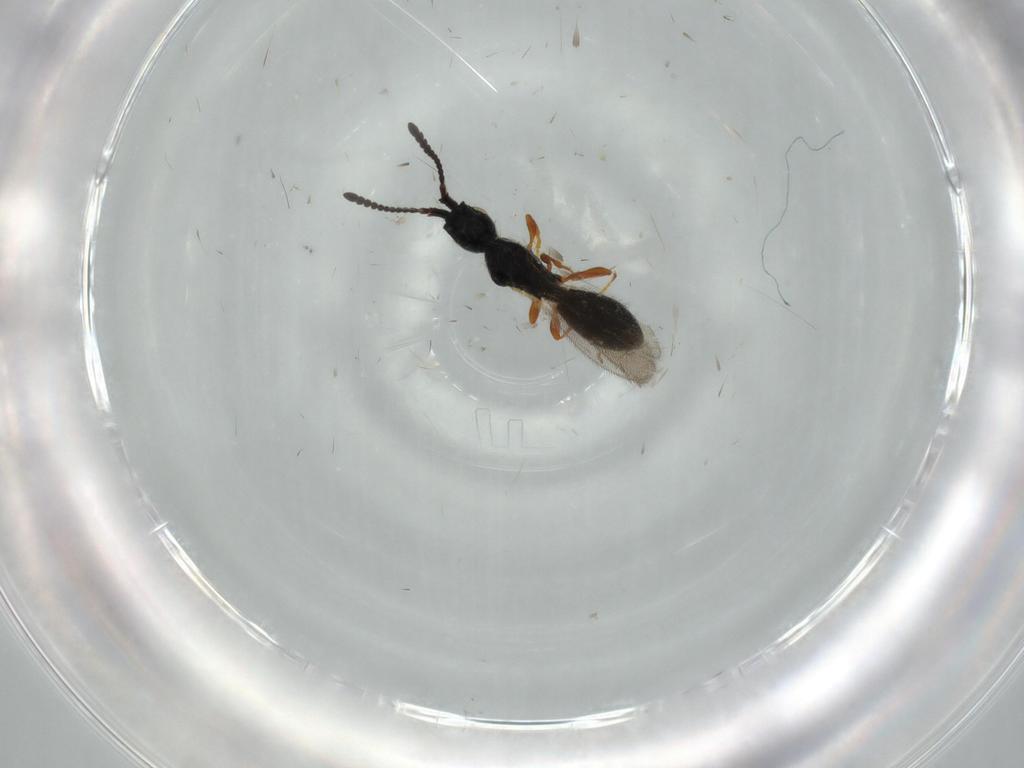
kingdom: Animalia
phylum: Arthropoda
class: Insecta
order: Hymenoptera
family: Diapriidae
